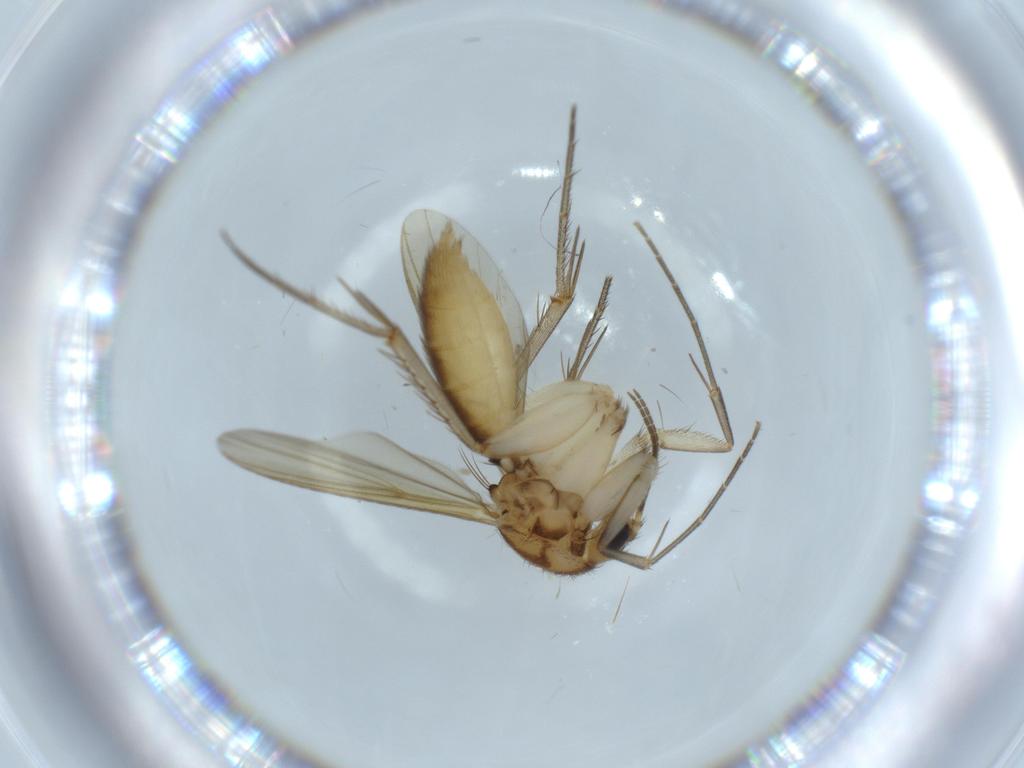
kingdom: Animalia
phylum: Arthropoda
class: Insecta
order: Diptera
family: Mycetophilidae
